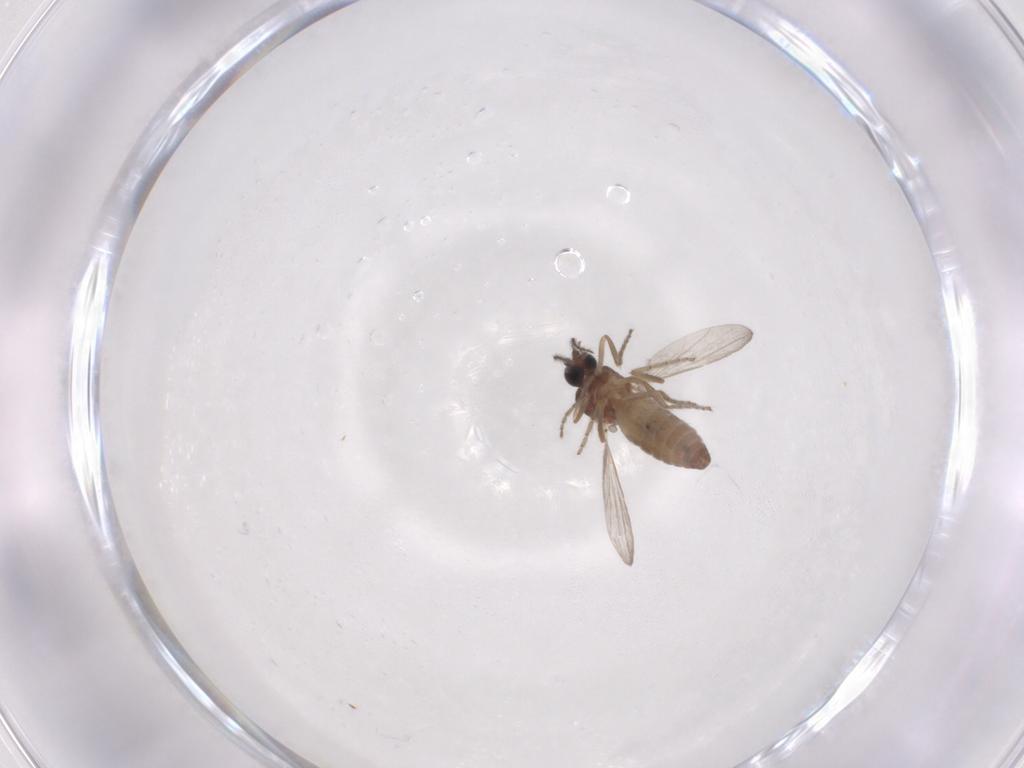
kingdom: Animalia
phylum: Arthropoda
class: Insecta
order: Diptera
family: Ceratopogonidae
